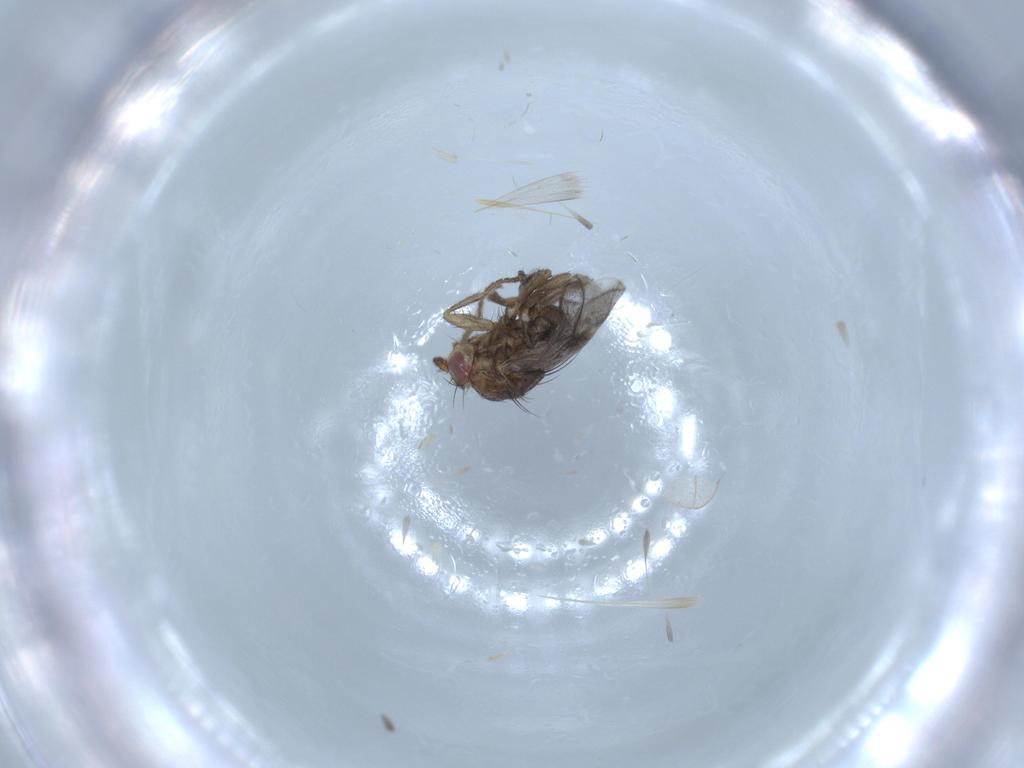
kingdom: Animalia
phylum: Arthropoda
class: Insecta
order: Diptera
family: Sphaeroceridae
